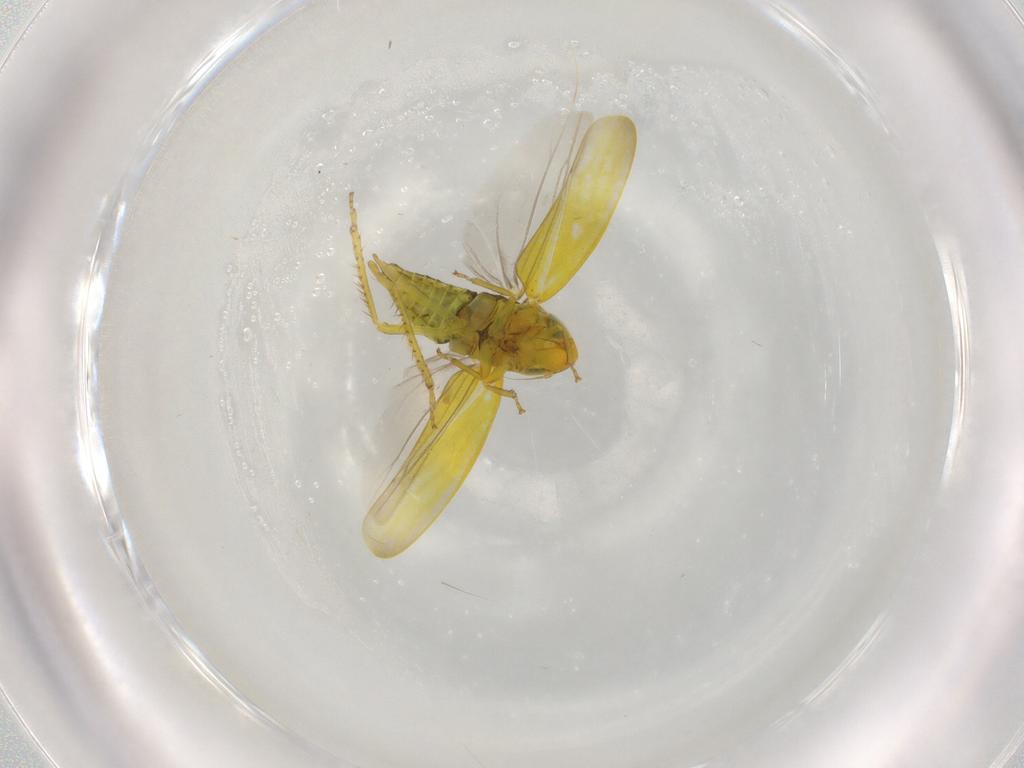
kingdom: Animalia
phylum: Arthropoda
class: Insecta
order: Hemiptera
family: Cicadellidae
